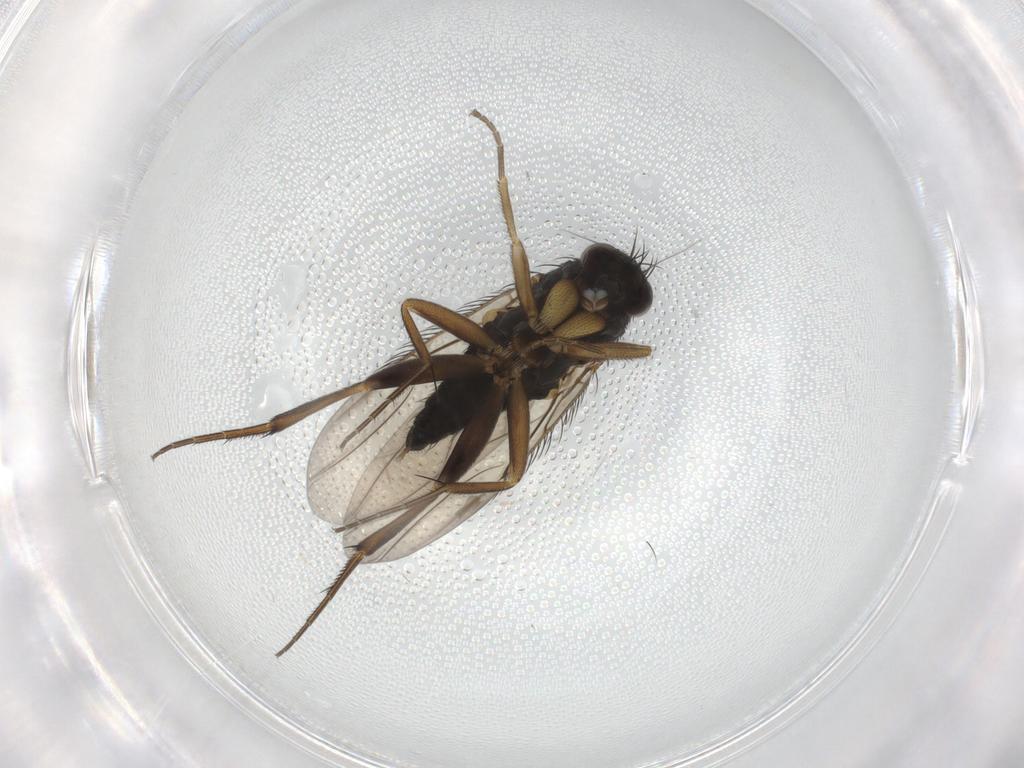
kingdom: Animalia
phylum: Arthropoda
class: Insecta
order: Diptera
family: Phoridae
